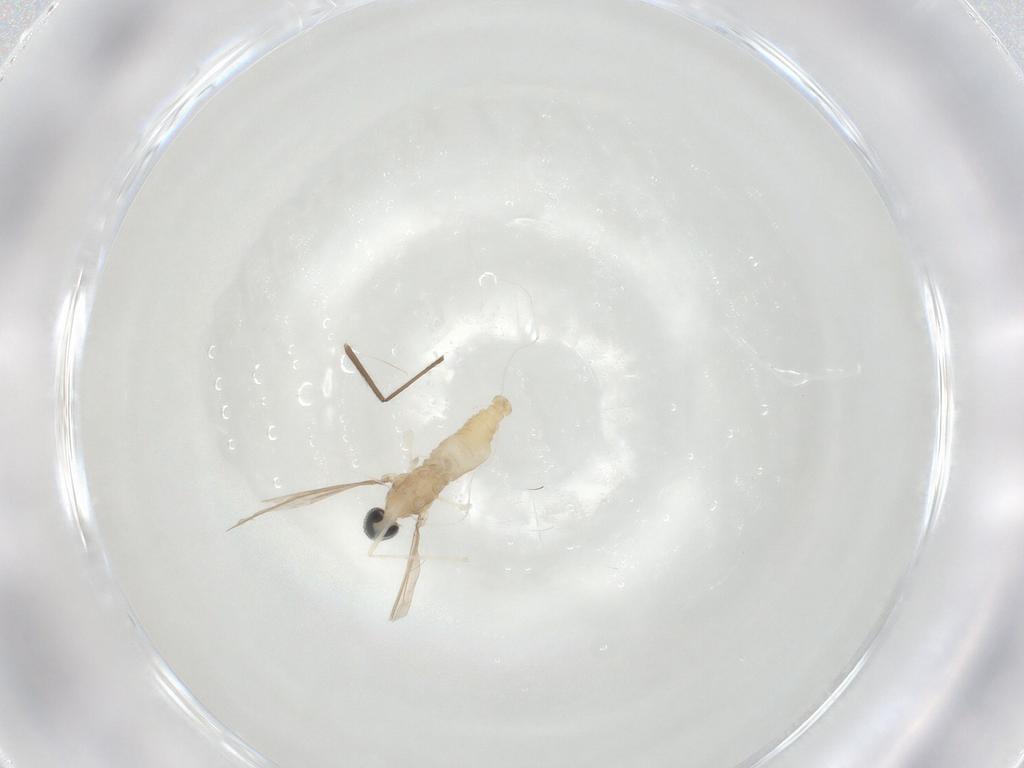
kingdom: Animalia
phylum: Arthropoda
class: Insecta
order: Diptera
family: Cecidomyiidae
